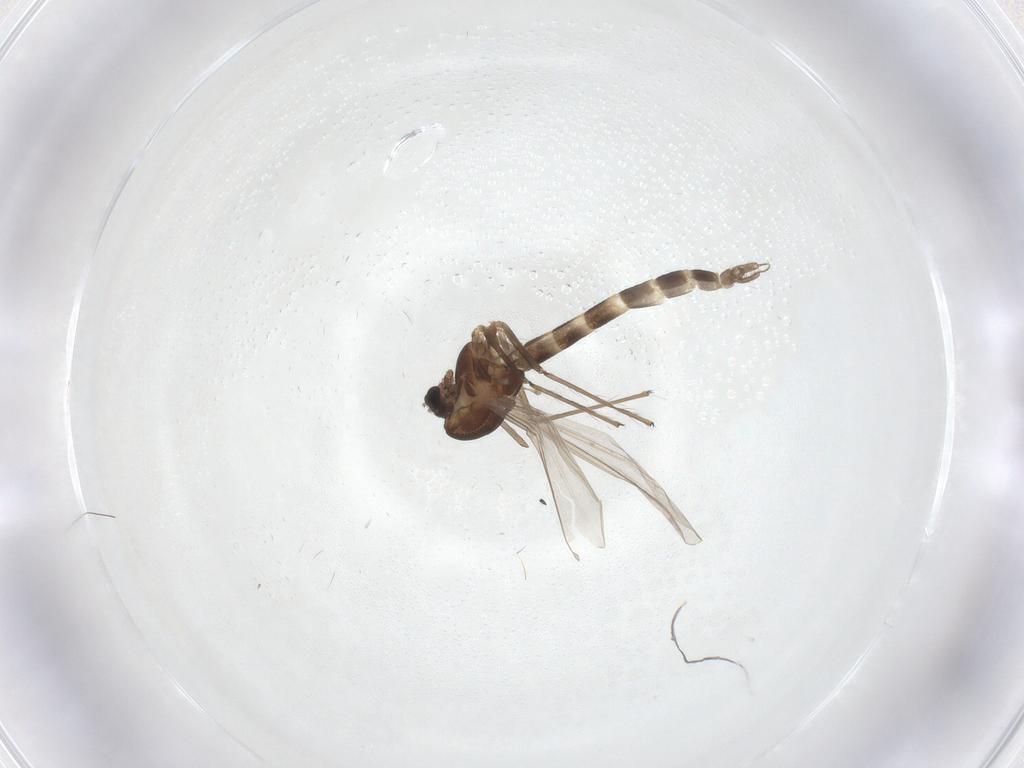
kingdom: Animalia
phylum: Arthropoda
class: Insecta
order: Diptera
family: Chironomidae
